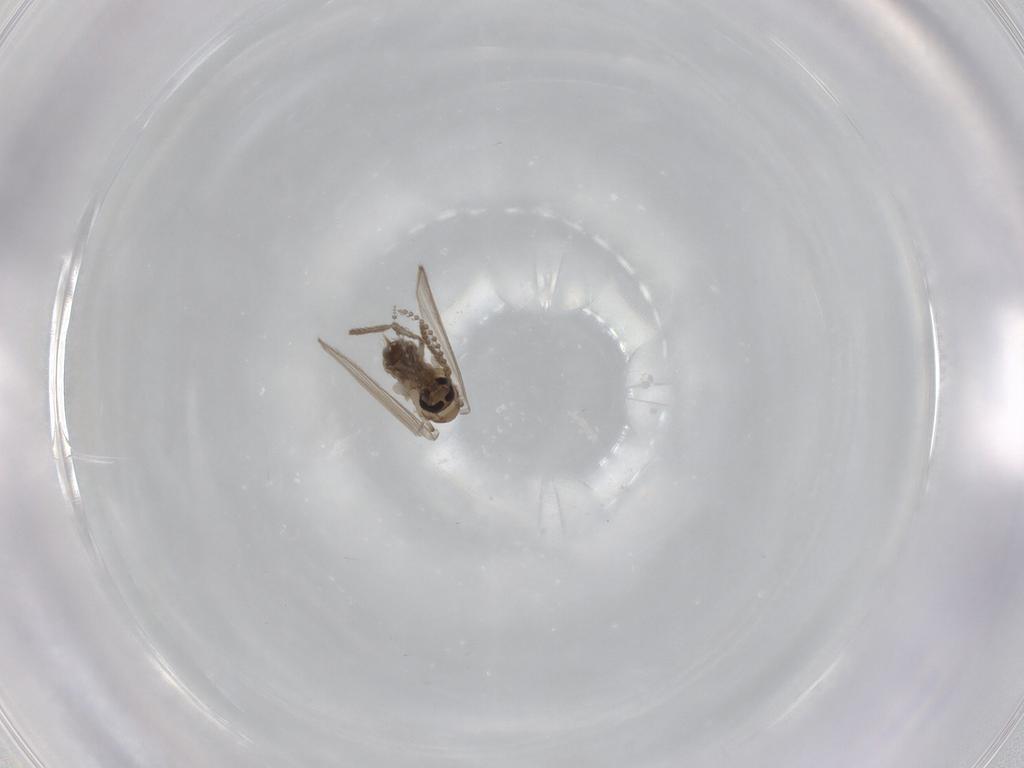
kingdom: Animalia
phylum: Arthropoda
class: Insecta
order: Diptera
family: Psychodidae
